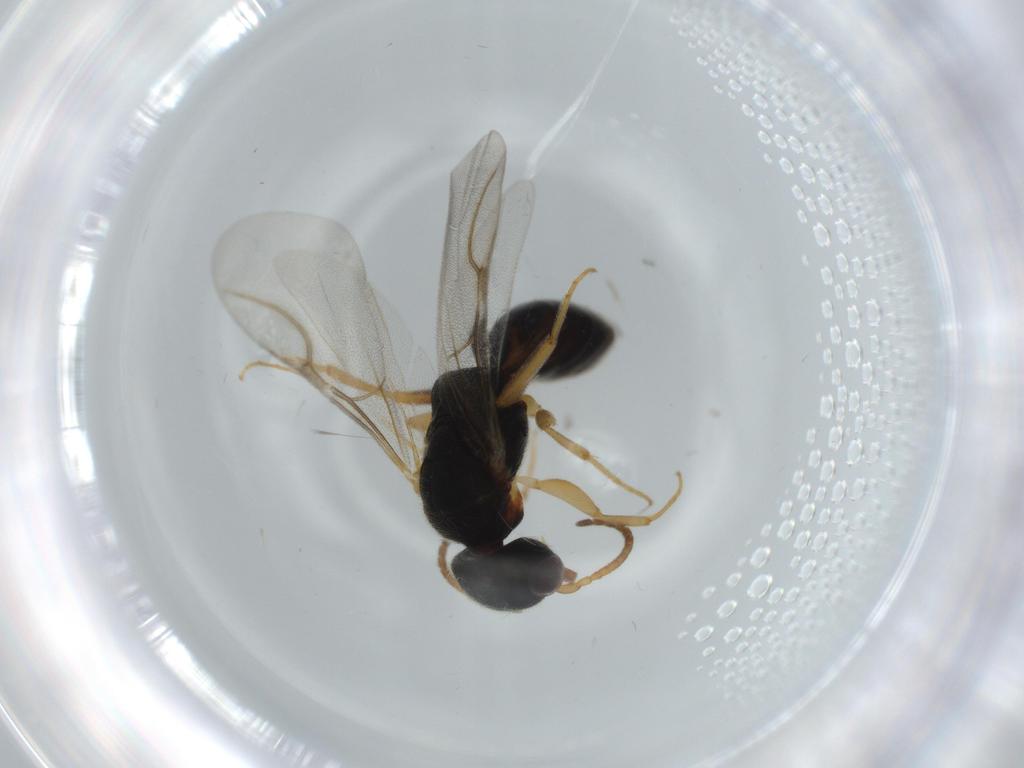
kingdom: Animalia
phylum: Arthropoda
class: Insecta
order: Hymenoptera
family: Bethylidae
